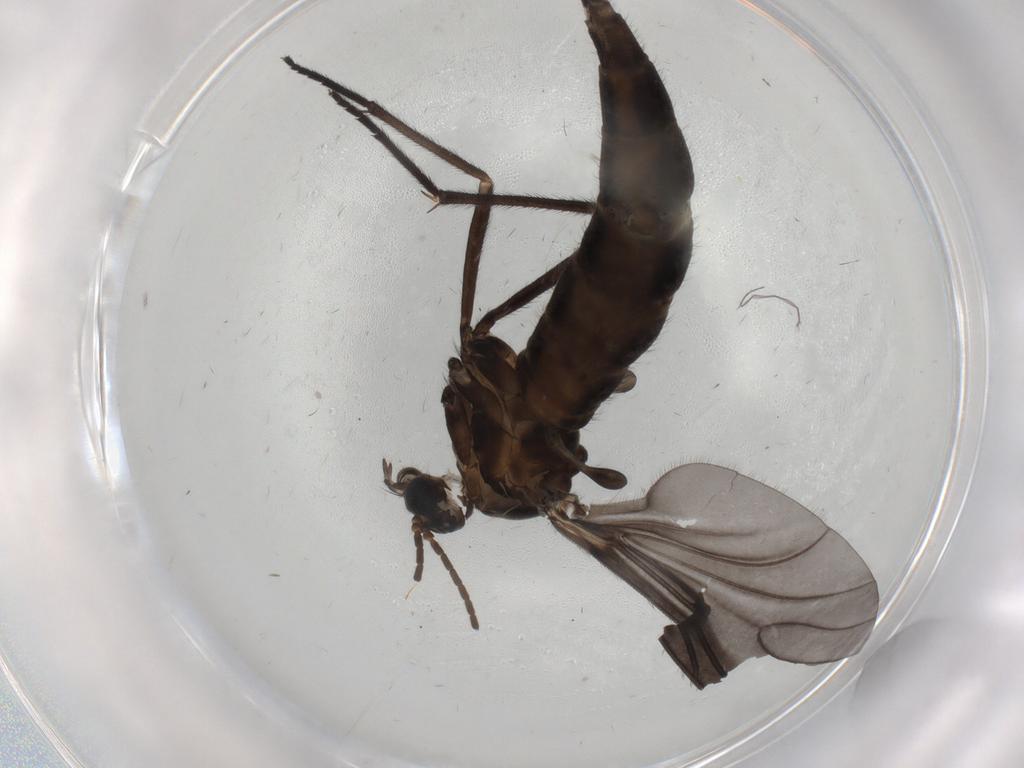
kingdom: Animalia
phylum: Arthropoda
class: Insecta
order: Diptera
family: Sciaridae
